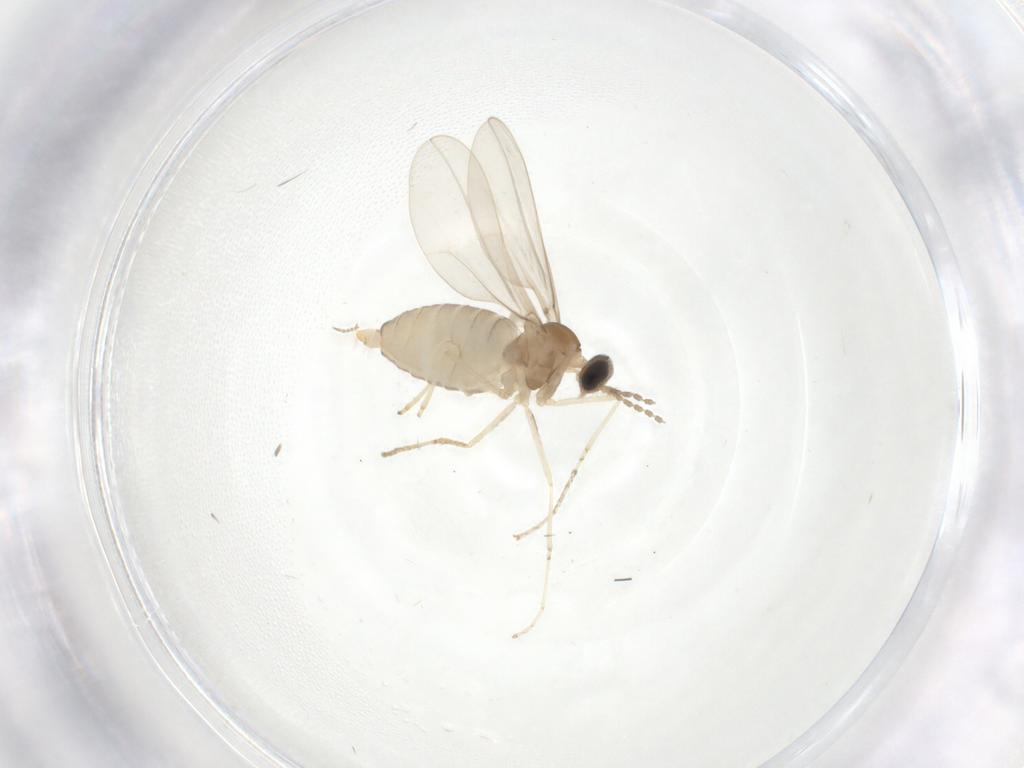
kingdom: Animalia
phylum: Arthropoda
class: Insecta
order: Diptera
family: Cecidomyiidae
